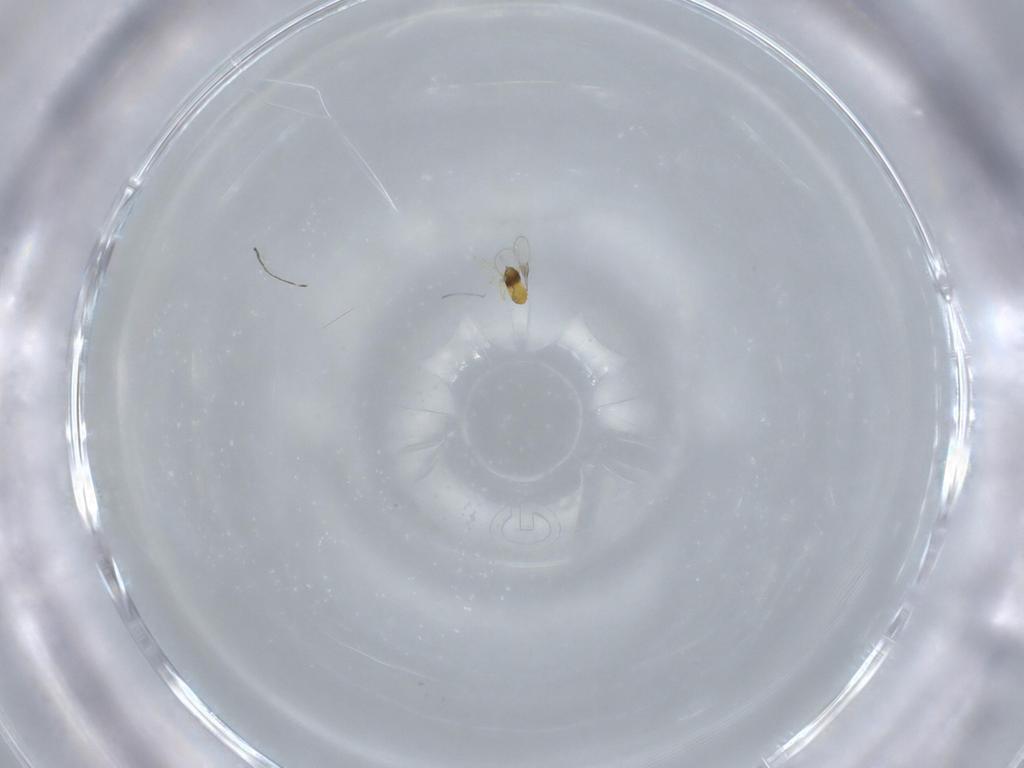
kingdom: Animalia
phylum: Arthropoda
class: Insecta
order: Hymenoptera
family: Trichogrammatidae
